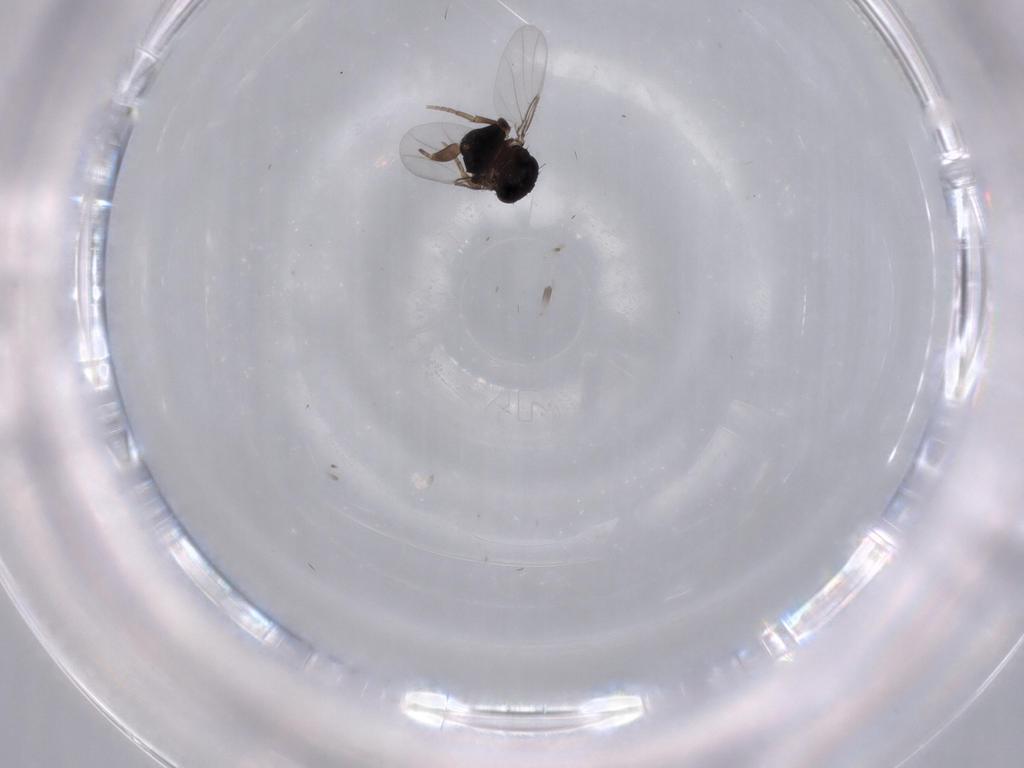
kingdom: Animalia
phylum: Arthropoda
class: Insecta
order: Diptera
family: Phoridae
